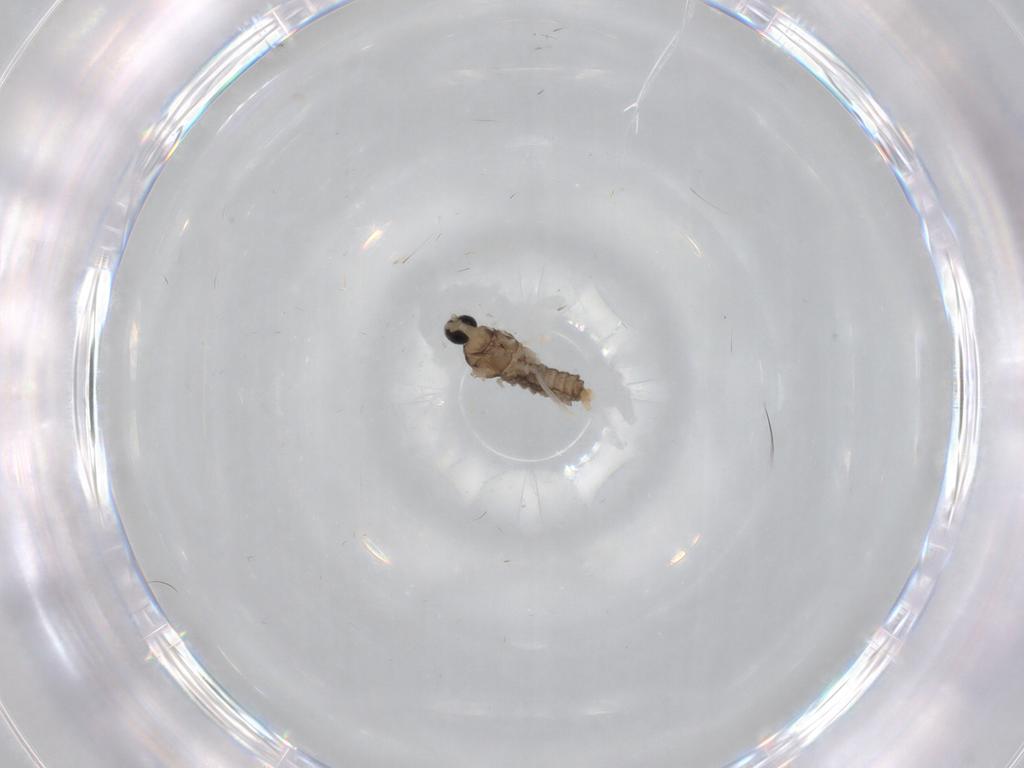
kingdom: Animalia
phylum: Arthropoda
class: Insecta
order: Diptera
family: Cecidomyiidae
